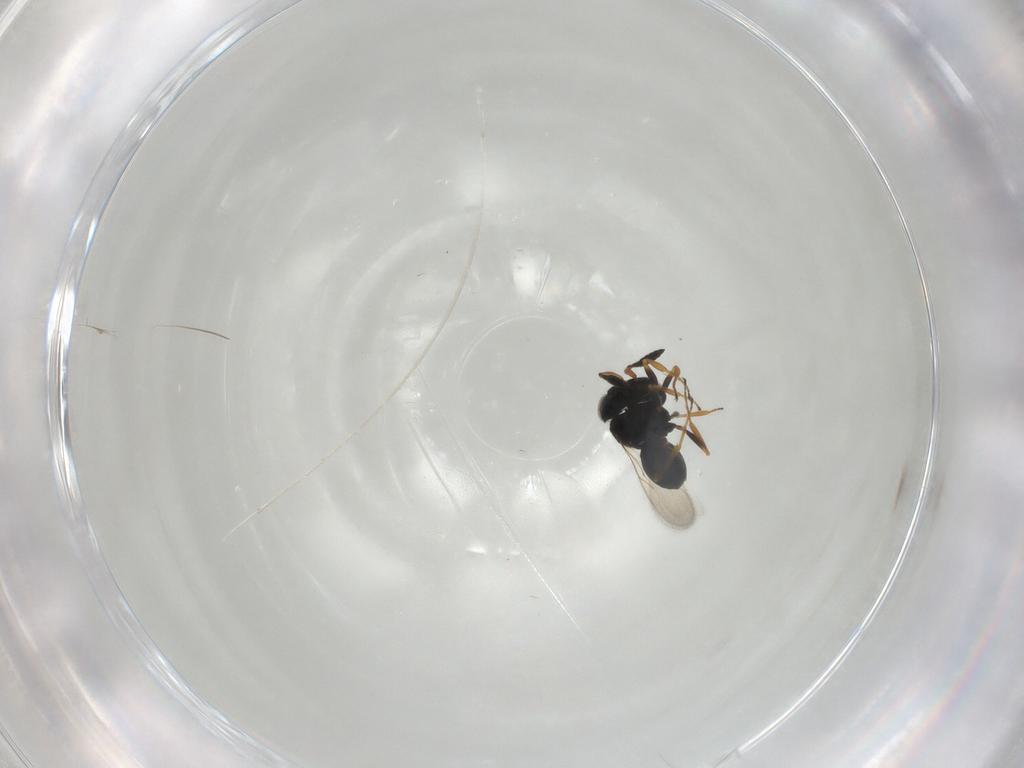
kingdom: Animalia
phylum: Arthropoda
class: Insecta
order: Hymenoptera
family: Scelionidae
